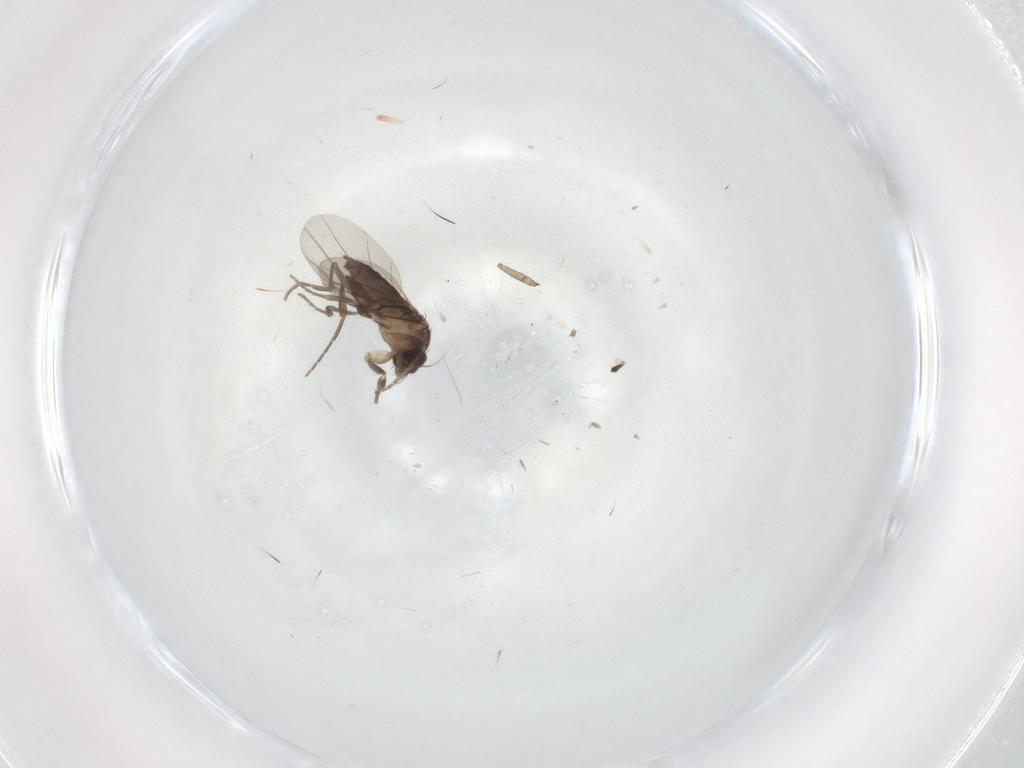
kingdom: Animalia
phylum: Arthropoda
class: Insecta
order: Diptera
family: Phoridae
